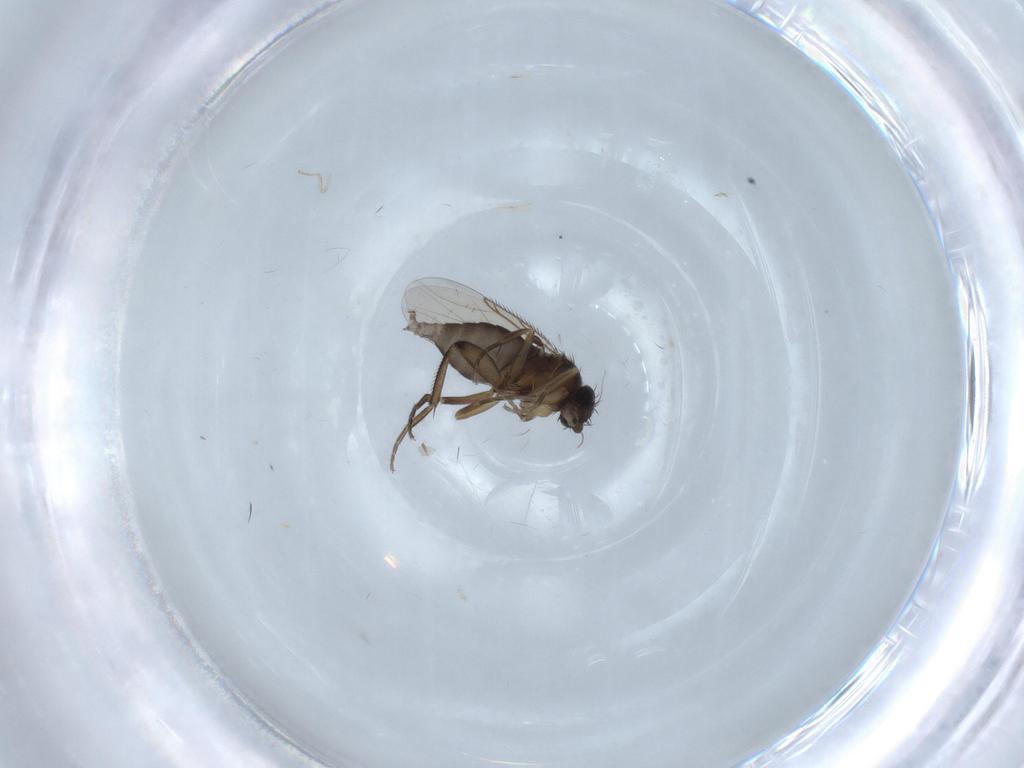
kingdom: Animalia
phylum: Arthropoda
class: Insecta
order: Diptera
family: Phoridae
